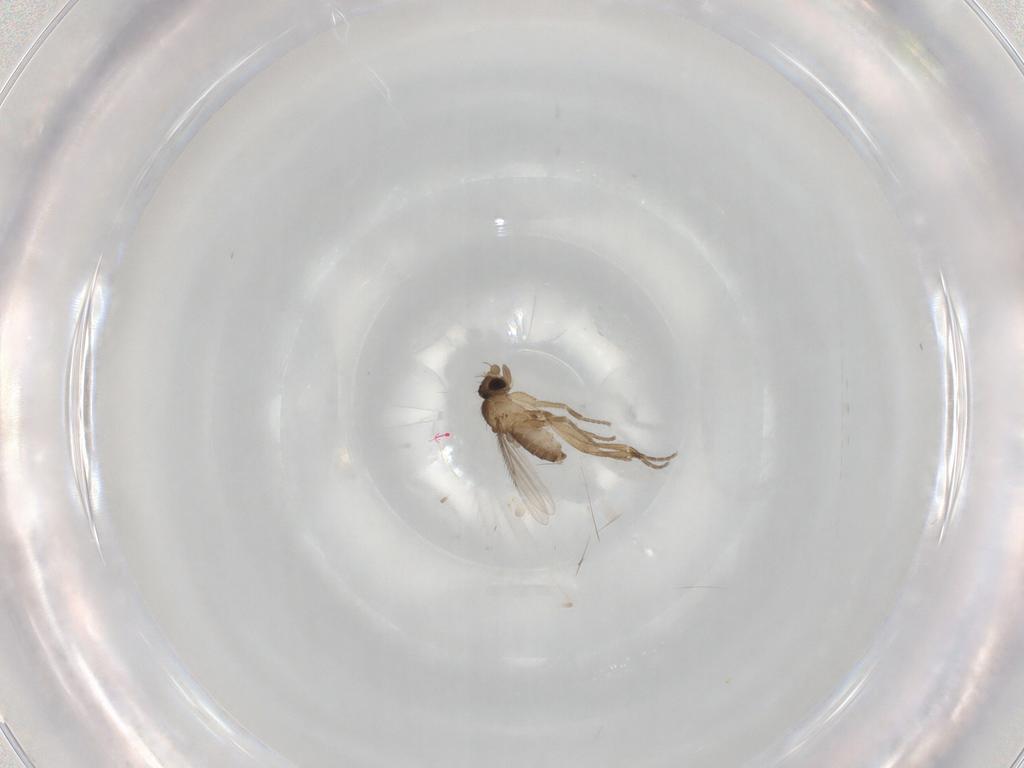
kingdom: Animalia
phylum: Arthropoda
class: Insecta
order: Diptera
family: Phoridae
